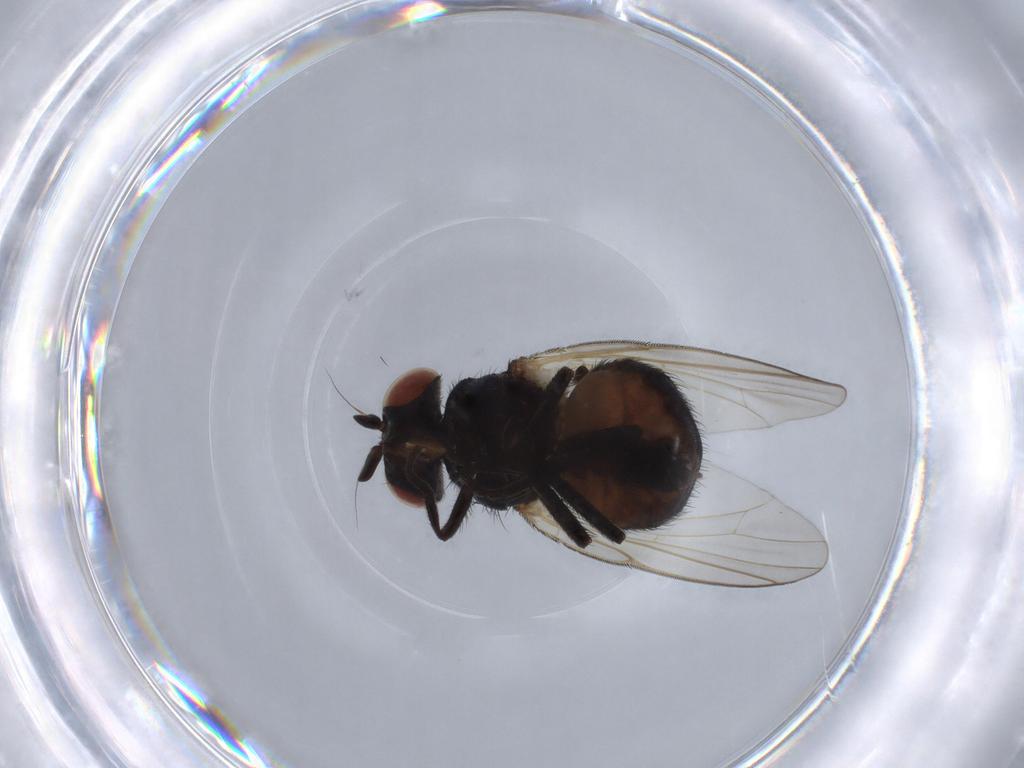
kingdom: Animalia
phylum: Arthropoda
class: Insecta
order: Diptera
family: Lonchaeidae
